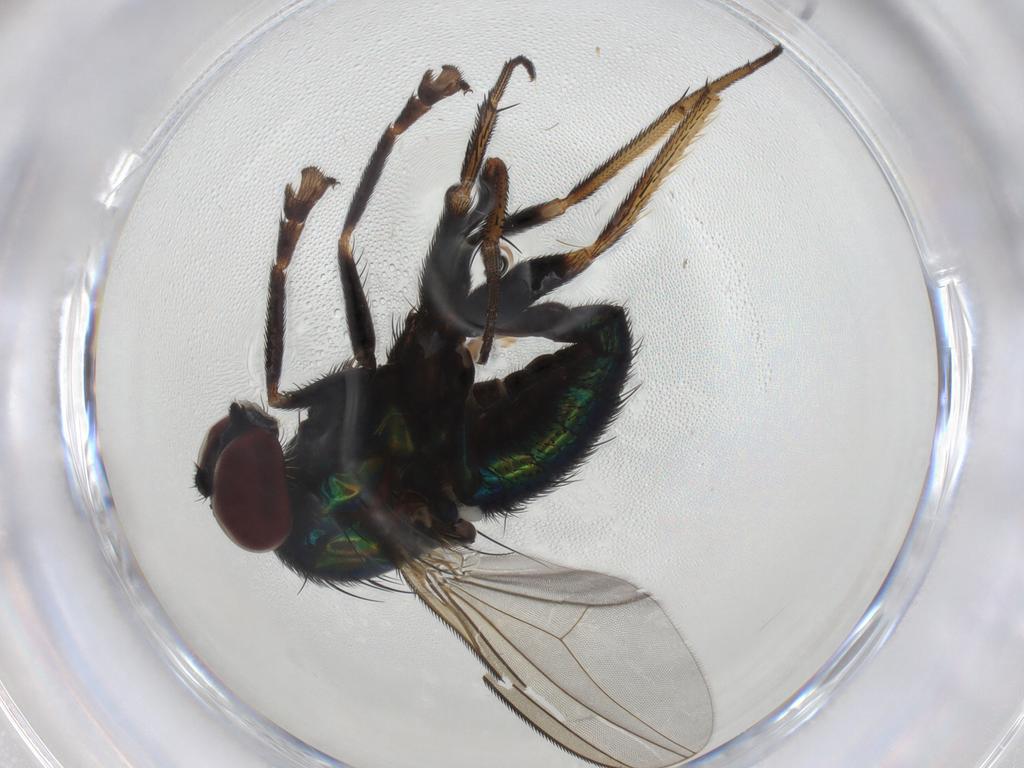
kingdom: Animalia
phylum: Arthropoda
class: Insecta
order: Diptera
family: Dolichopodidae
